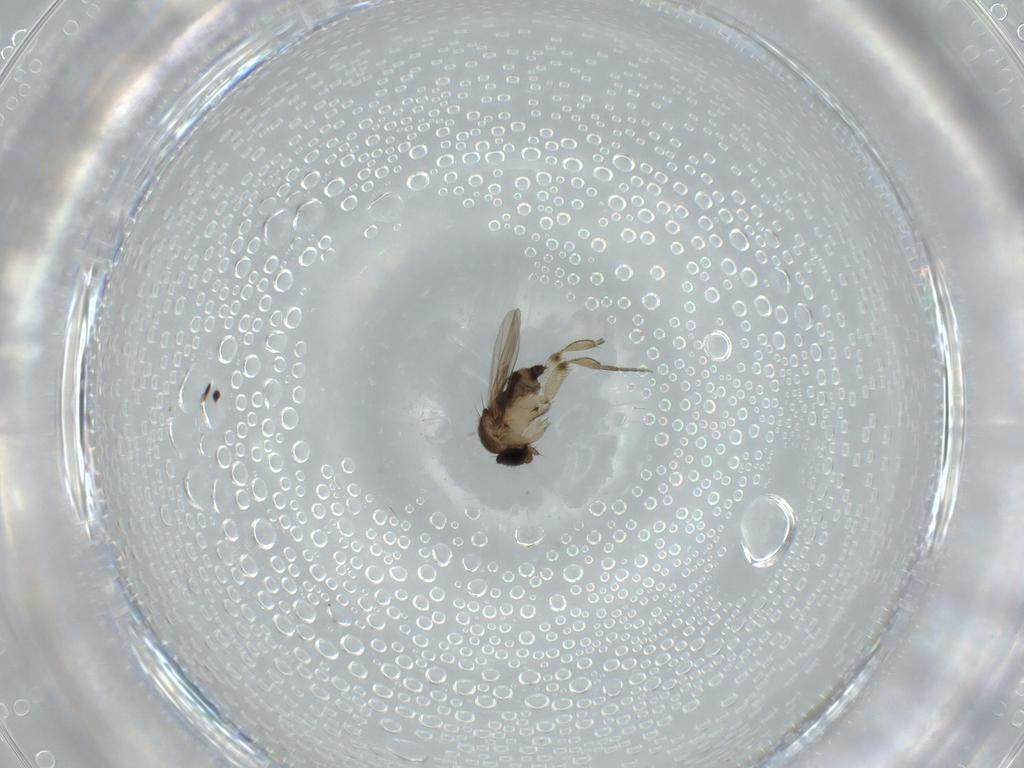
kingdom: Animalia
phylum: Arthropoda
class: Insecta
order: Diptera
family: Phoridae
